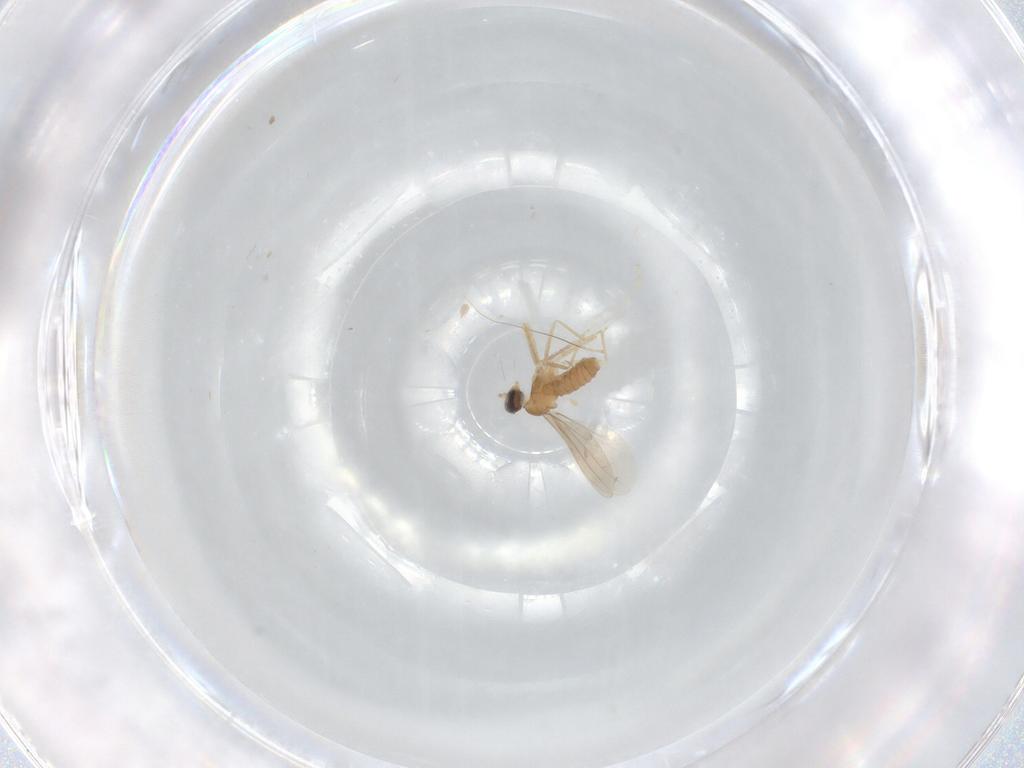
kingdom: Animalia
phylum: Arthropoda
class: Insecta
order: Diptera
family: Cecidomyiidae
